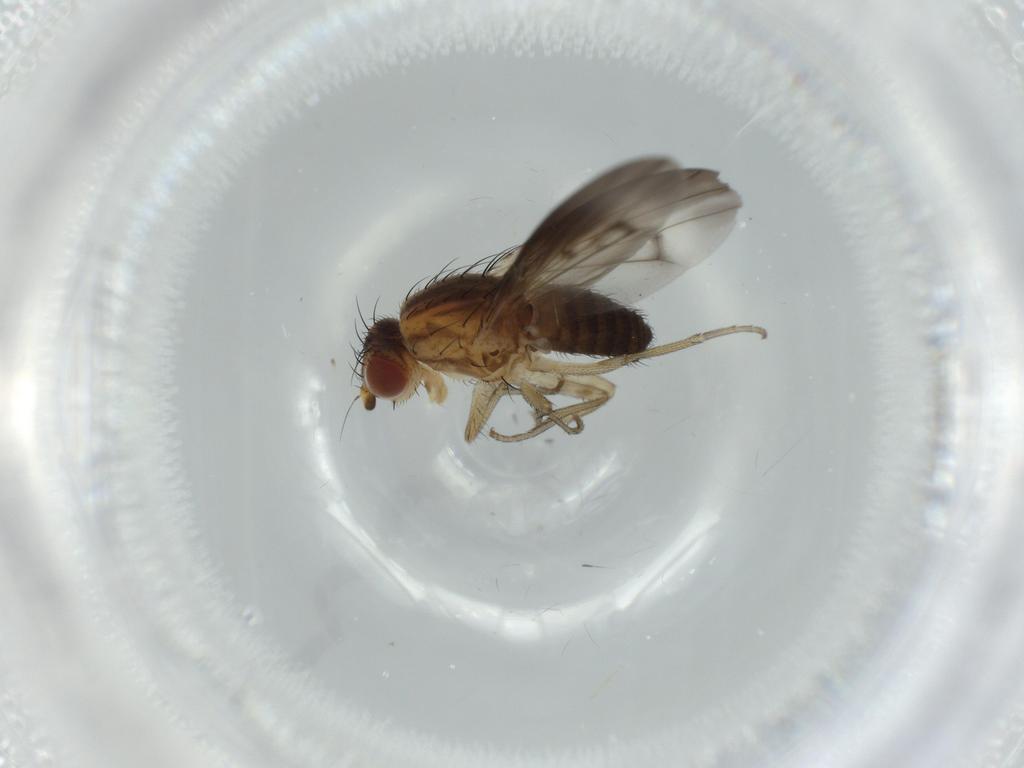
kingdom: Animalia
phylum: Arthropoda
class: Insecta
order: Diptera
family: Heleomyzidae
